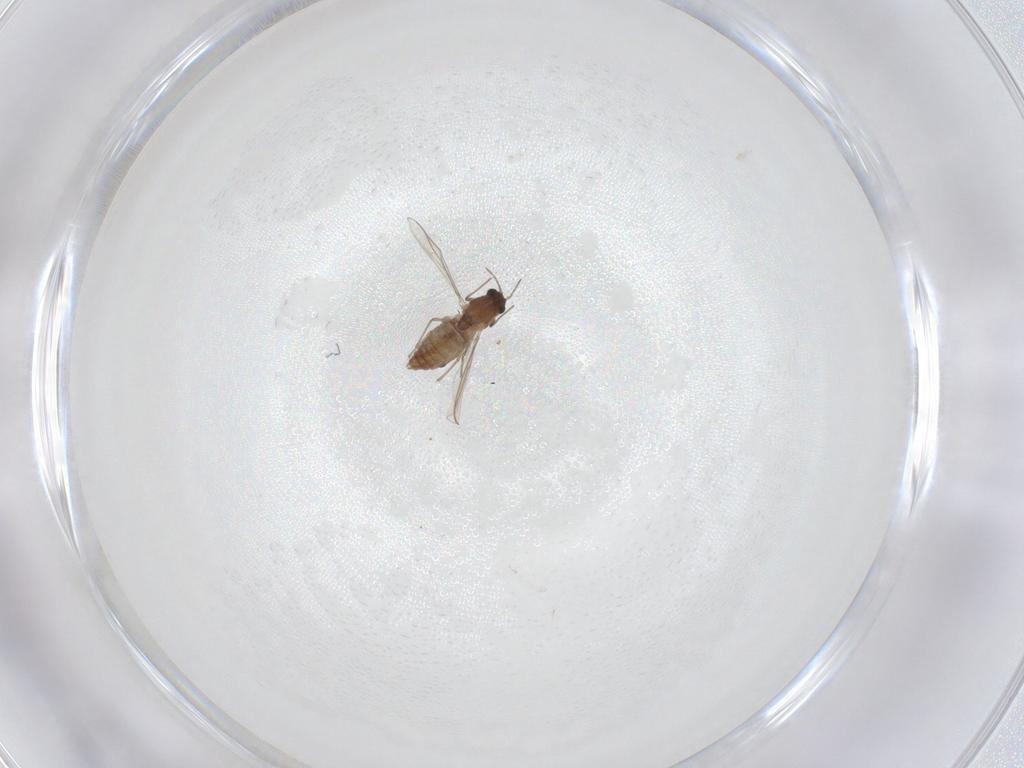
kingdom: Animalia
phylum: Arthropoda
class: Insecta
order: Diptera
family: Chironomidae
